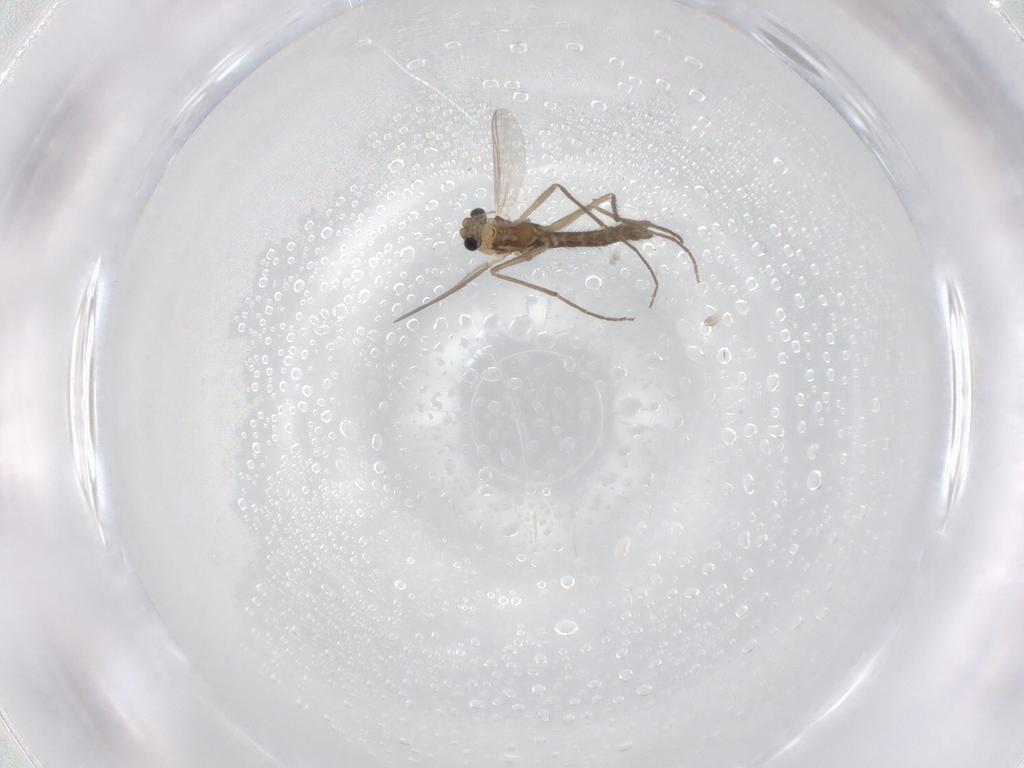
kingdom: Animalia
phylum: Arthropoda
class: Insecta
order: Diptera
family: Chironomidae
